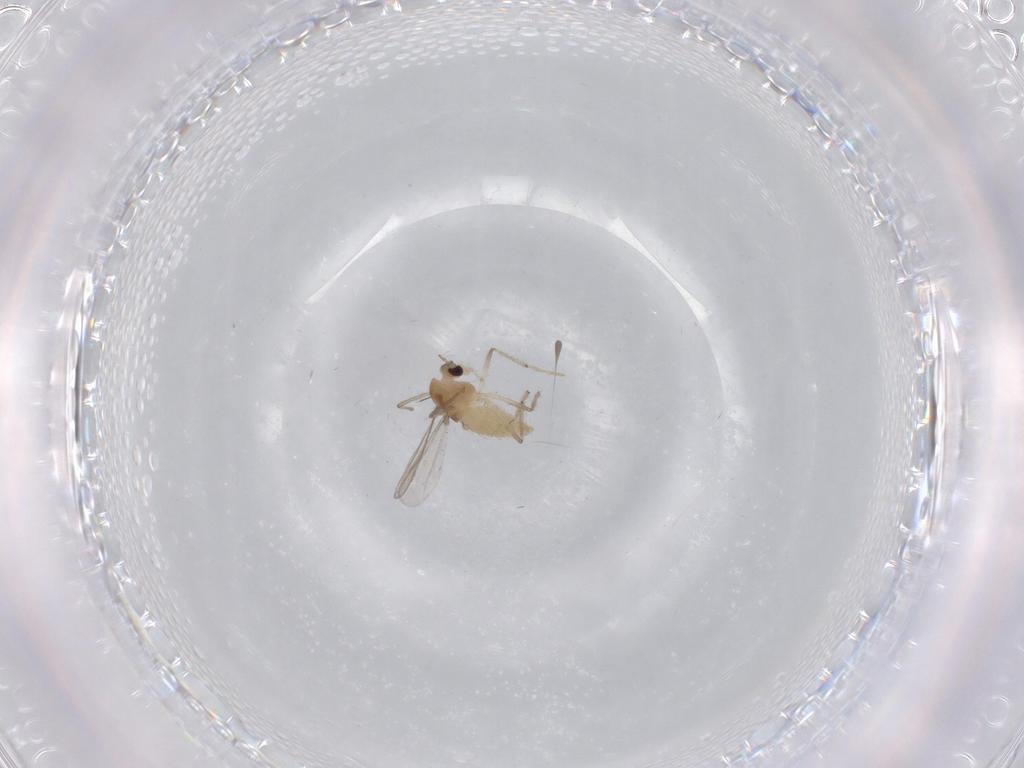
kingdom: Animalia
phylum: Arthropoda
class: Insecta
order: Diptera
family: Chironomidae
